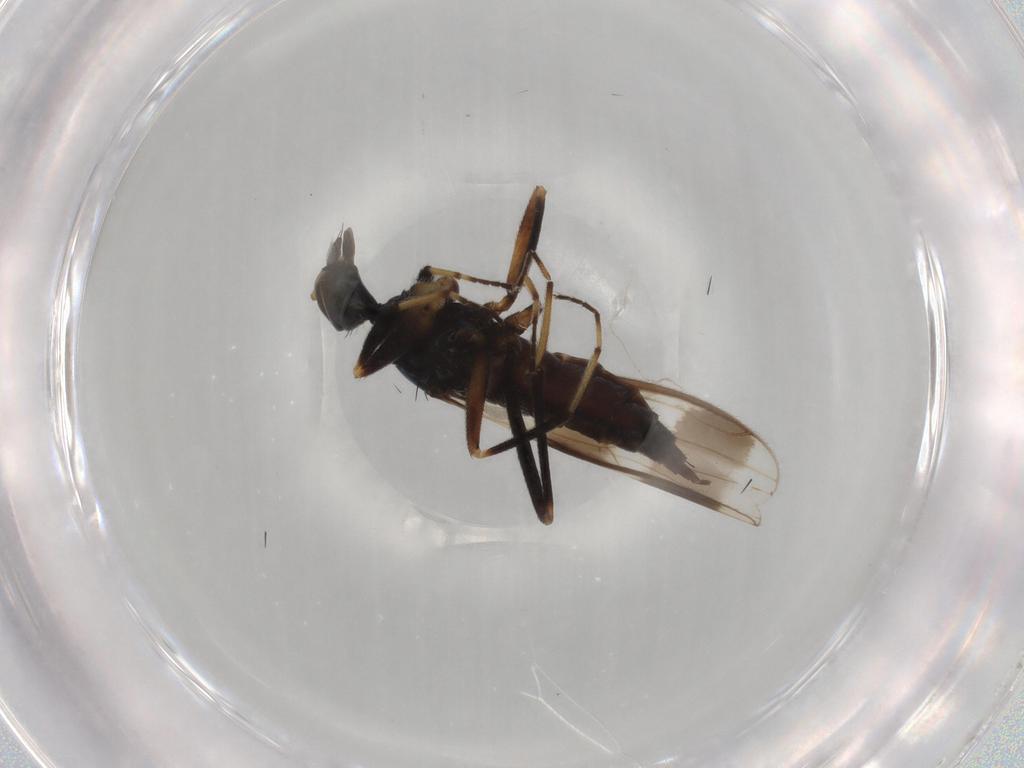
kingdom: Animalia
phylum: Arthropoda
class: Insecta
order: Diptera
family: Hybotidae
